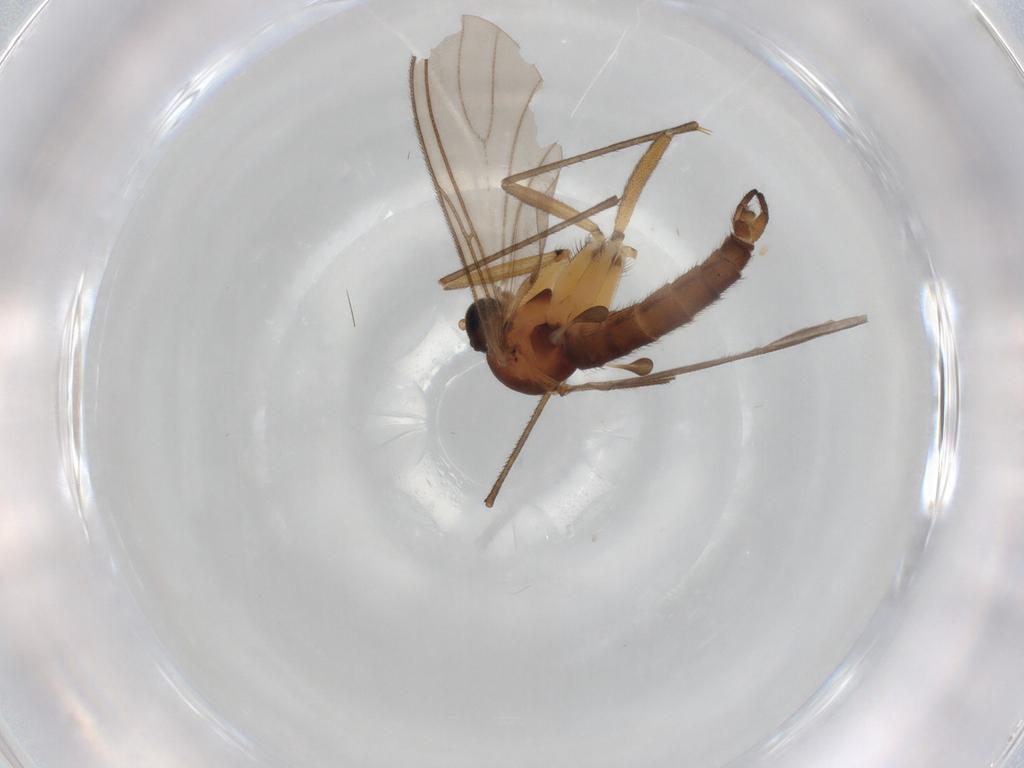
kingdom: Animalia
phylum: Arthropoda
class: Insecta
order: Diptera
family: Sciaridae
